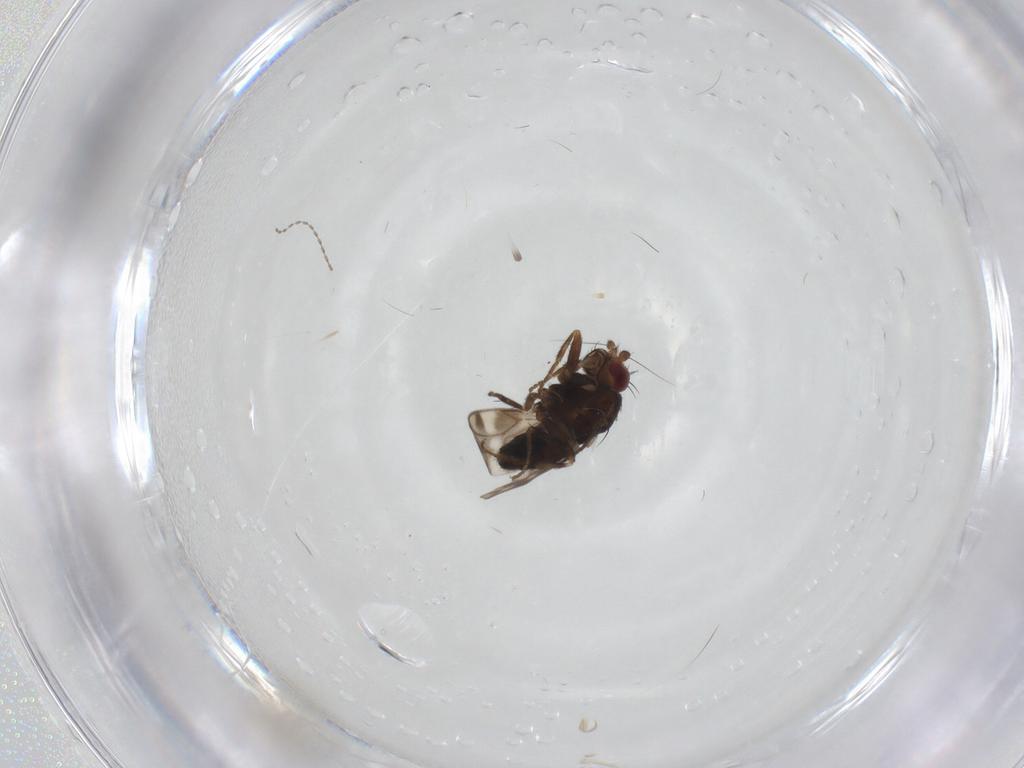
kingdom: Animalia
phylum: Arthropoda
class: Insecta
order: Diptera
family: Sphaeroceridae
